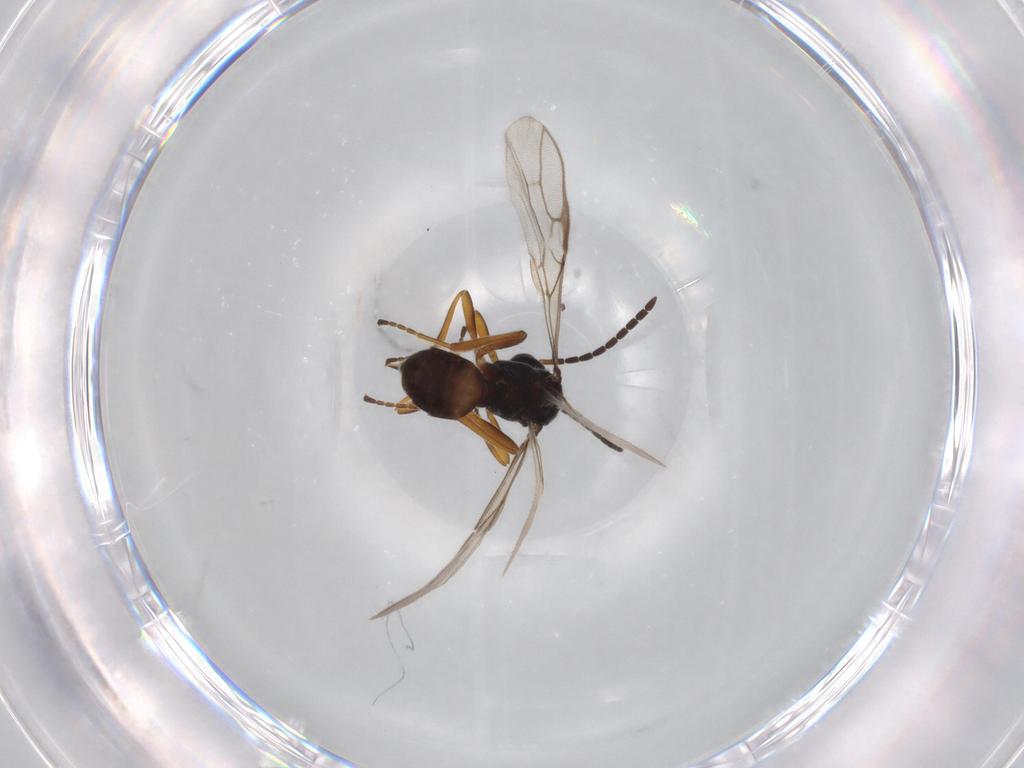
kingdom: Animalia
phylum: Arthropoda
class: Insecta
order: Hymenoptera
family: Braconidae
